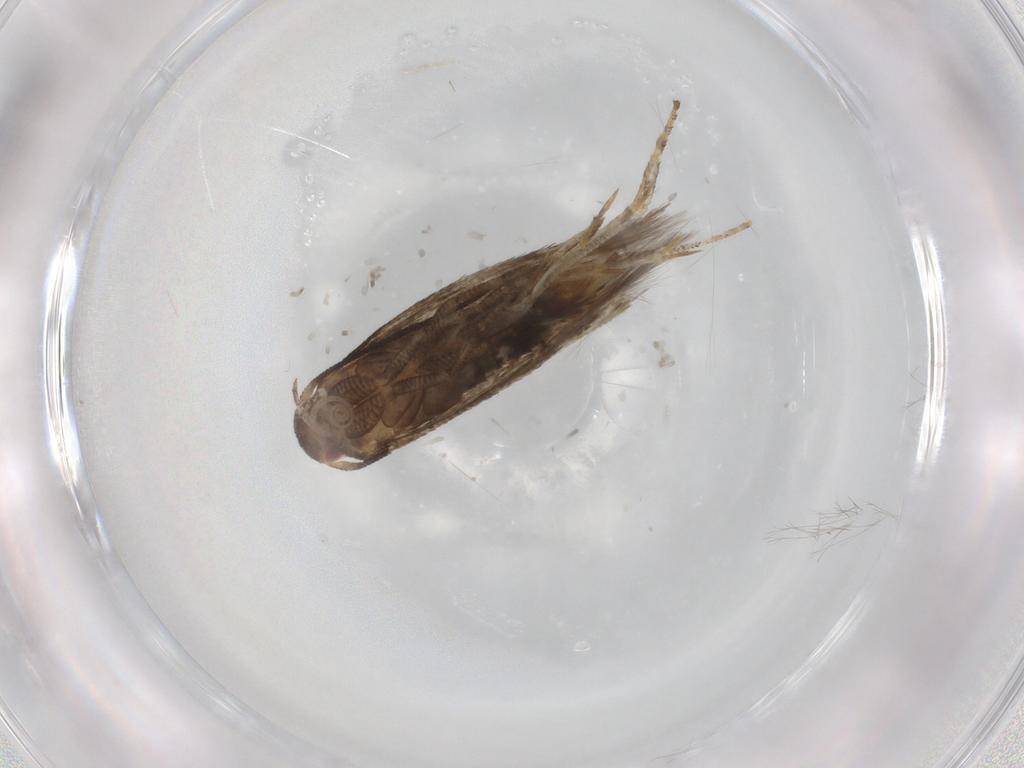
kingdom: Animalia
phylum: Arthropoda
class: Insecta
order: Lepidoptera
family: Momphidae
